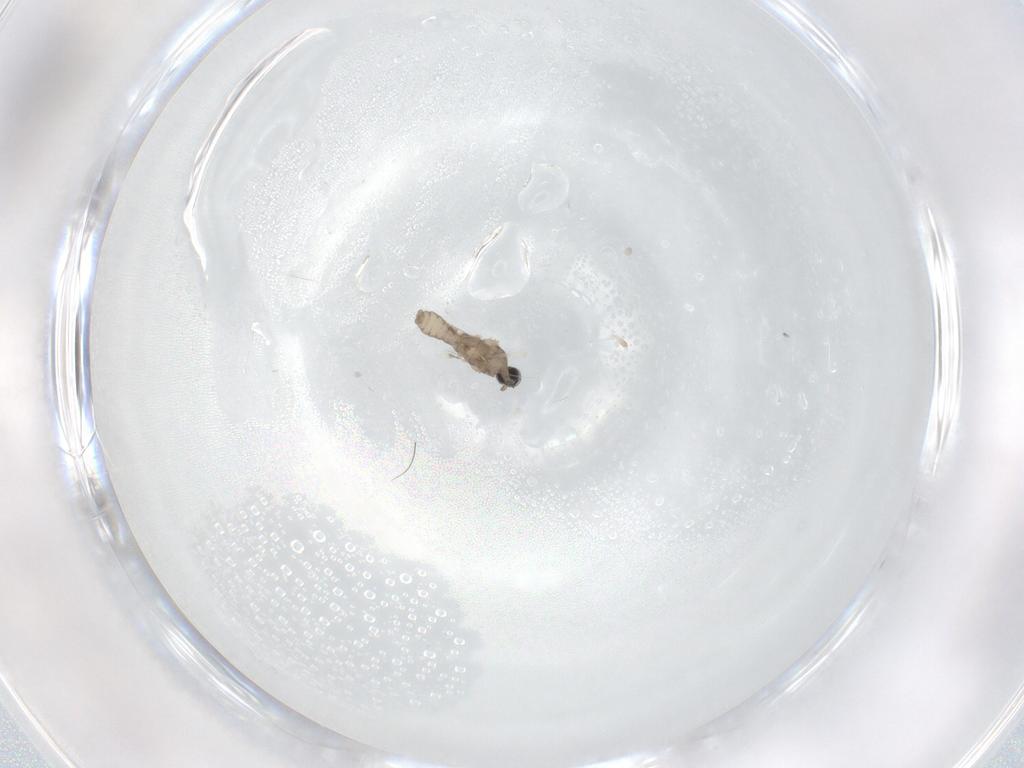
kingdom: Animalia
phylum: Arthropoda
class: Insecta
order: Diptera
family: Cecidomyiidae
